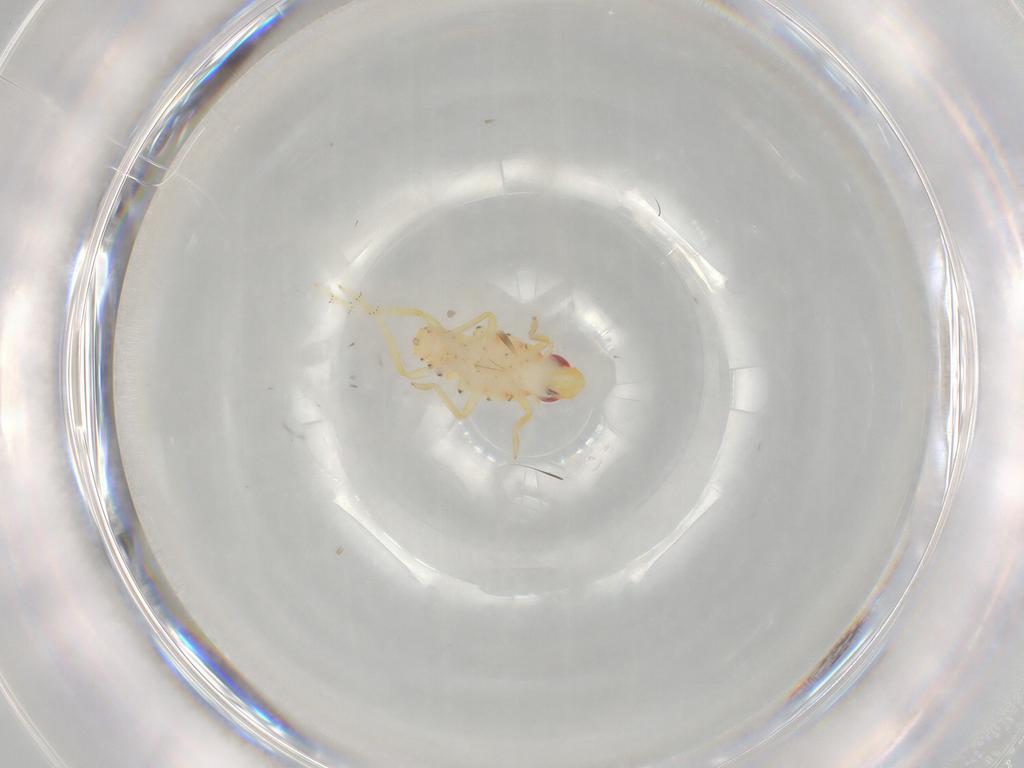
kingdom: Animalia
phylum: Arthropoda
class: Insecta
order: Hemiptera
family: Tropiduchidae
